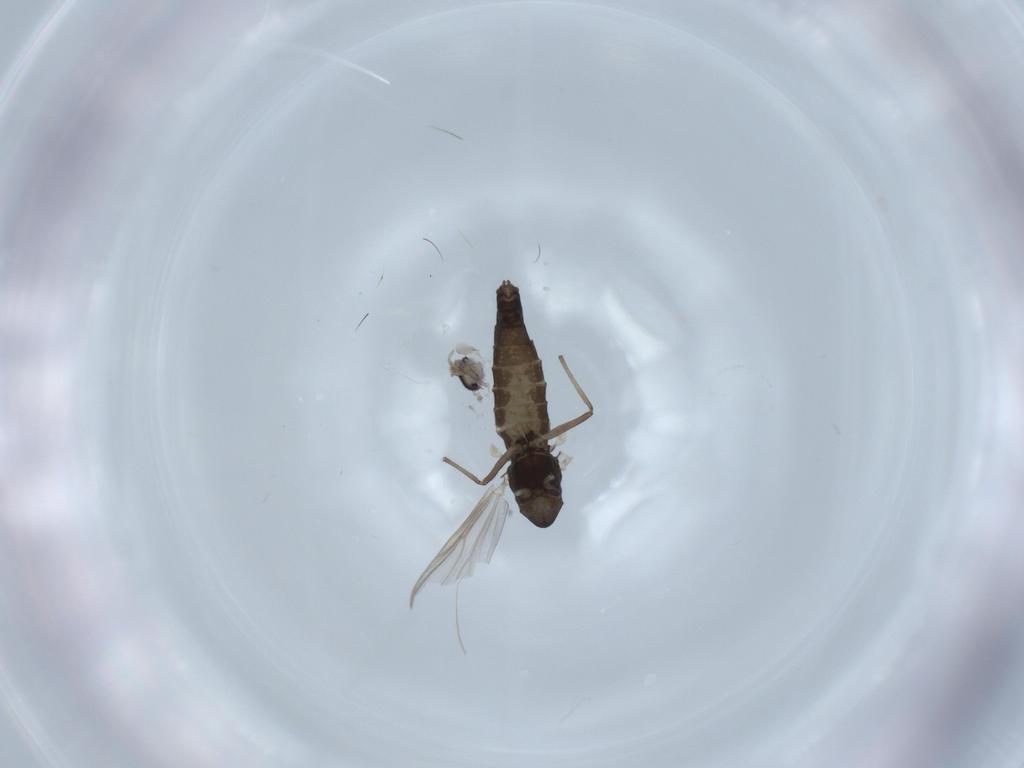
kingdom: Animalia
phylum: Arthropoda
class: Insecta
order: Diptera
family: Chironomidae
